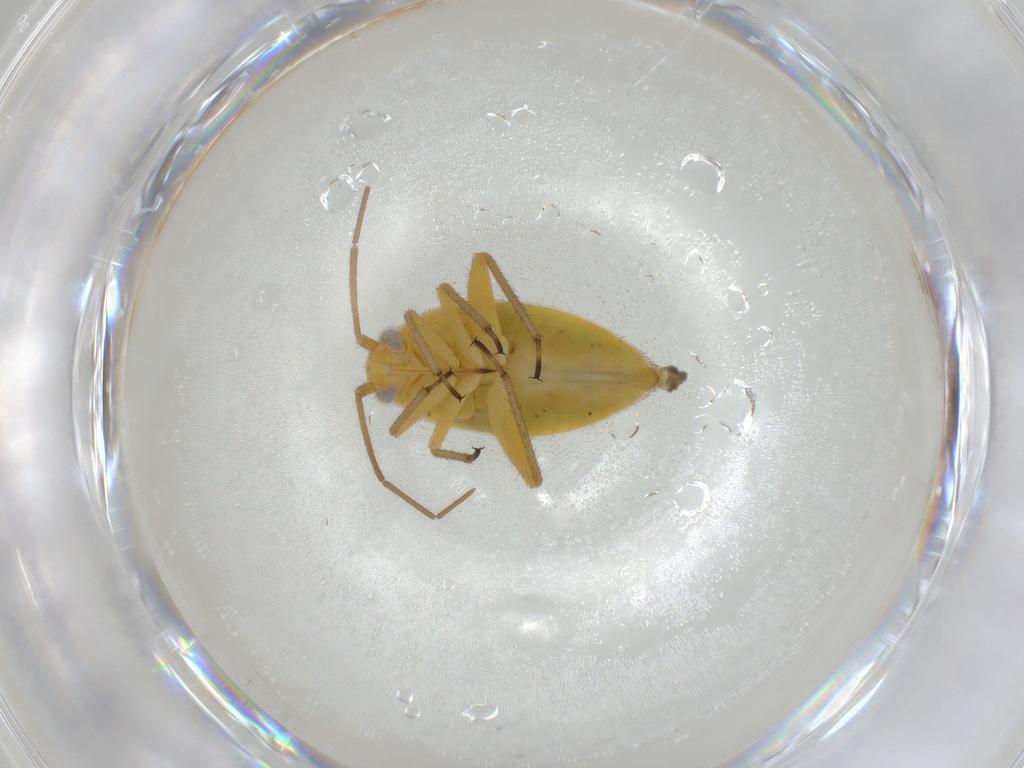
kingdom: Animalia
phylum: Arthropoda
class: Insecta
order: Hemiptera
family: Miridae
